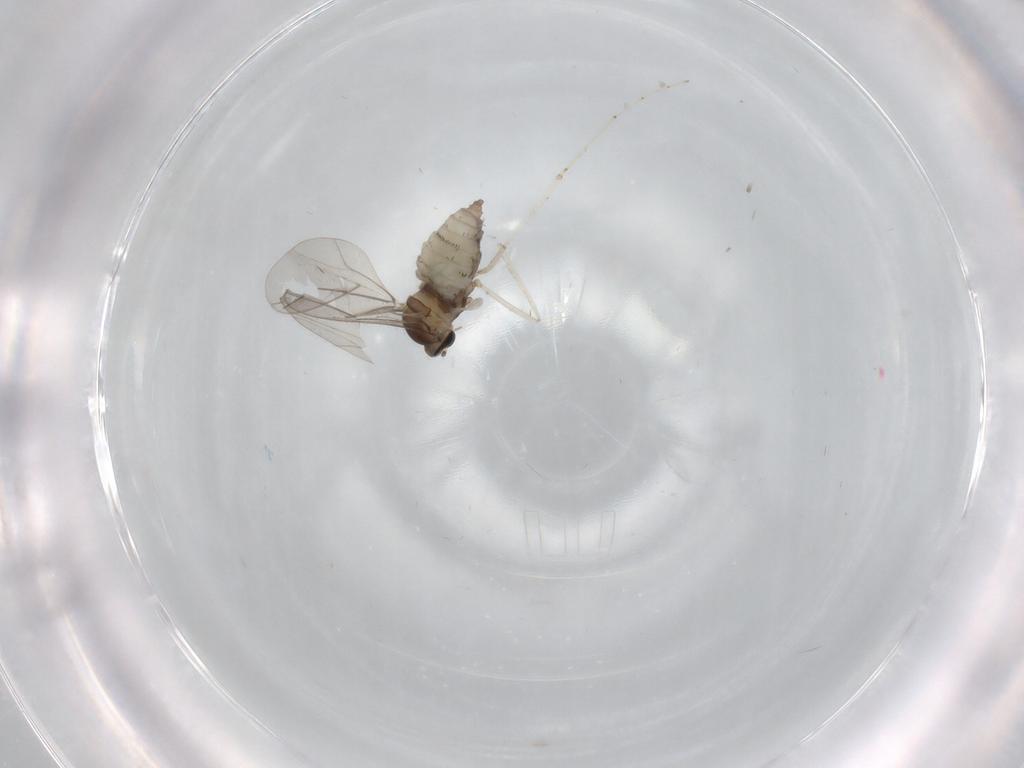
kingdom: Animalia
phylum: Arthropoda
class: Insecta
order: Diptera
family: Cecidomyiidae
